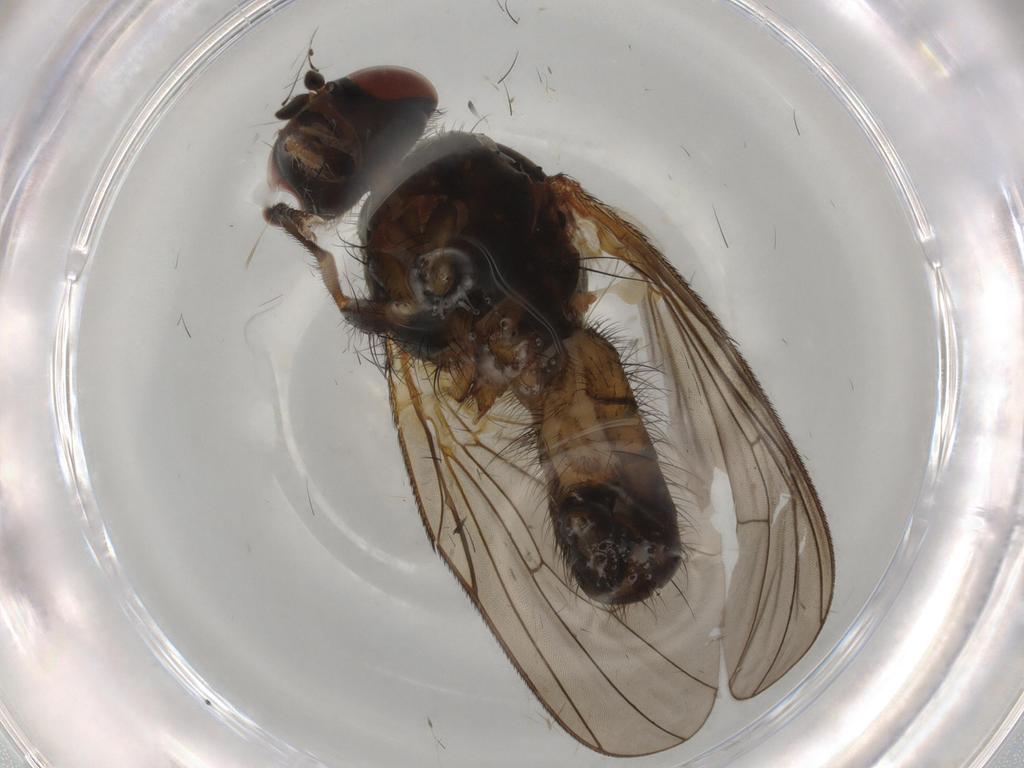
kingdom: Animalia
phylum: Arthropoda
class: Insecta
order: Diptera
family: Anthomyiidae
